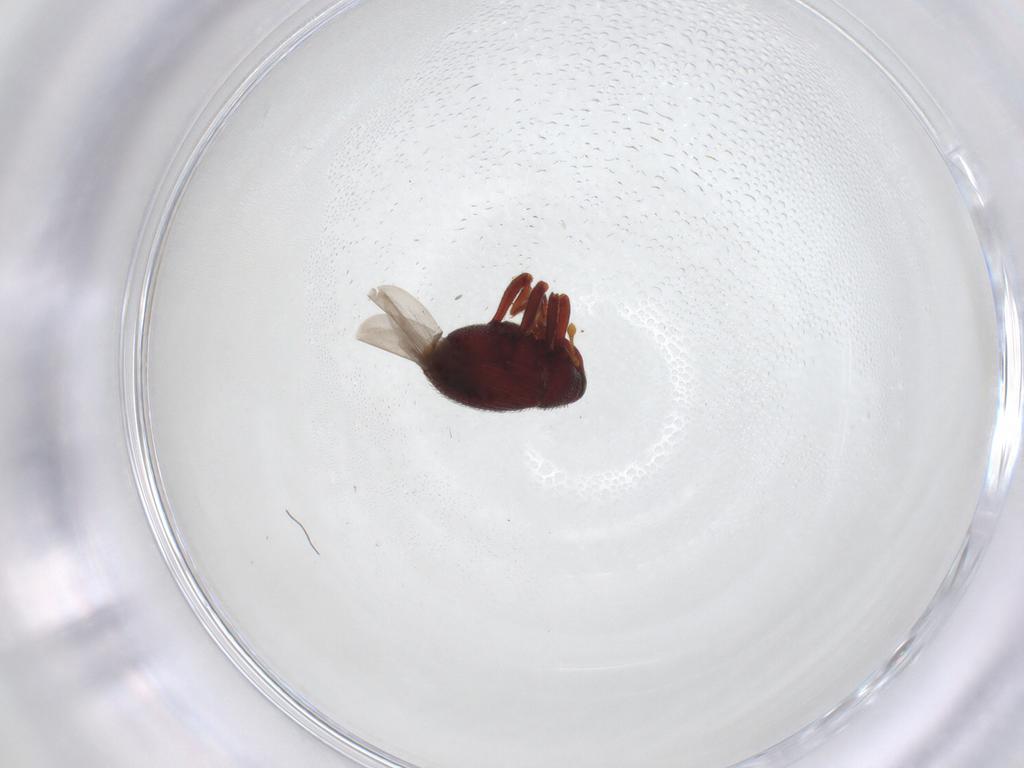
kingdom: Animalia
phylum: Arthropoda
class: Insecta
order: Coleoptera
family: Curculionidae
